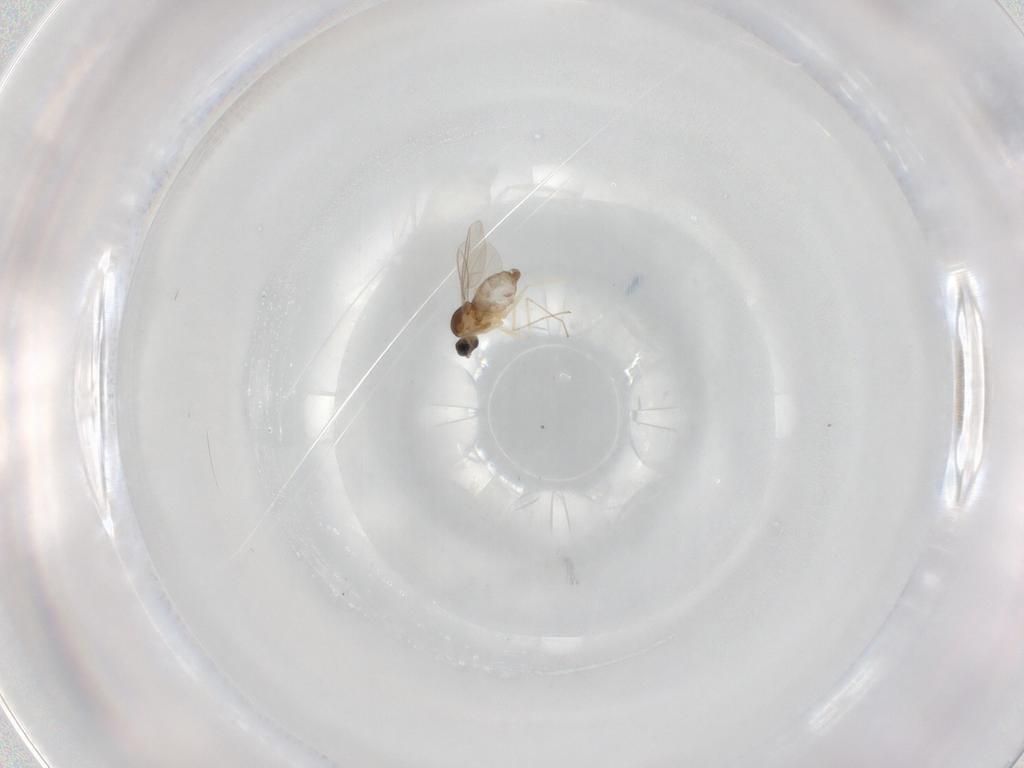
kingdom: Animalia
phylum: Arthropoda
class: Insecta
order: Diptera
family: Cecidomyiidae
